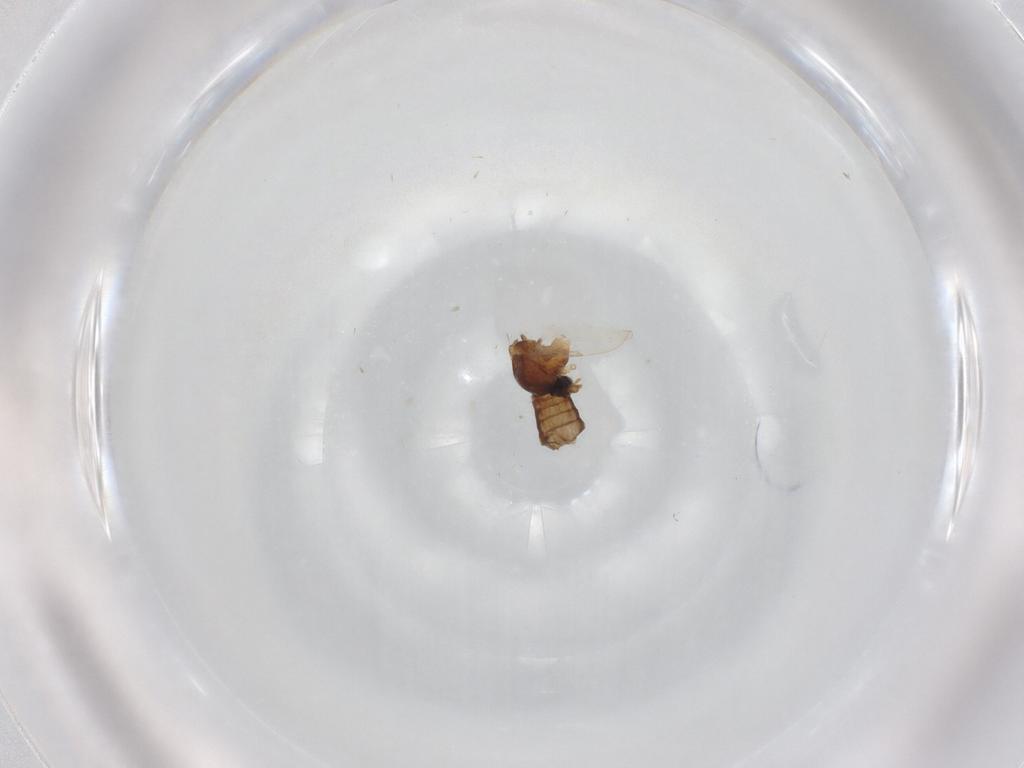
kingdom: Animalia
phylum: Arthropoda
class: Insecta
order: Diptera
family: Ceratopogonidae
